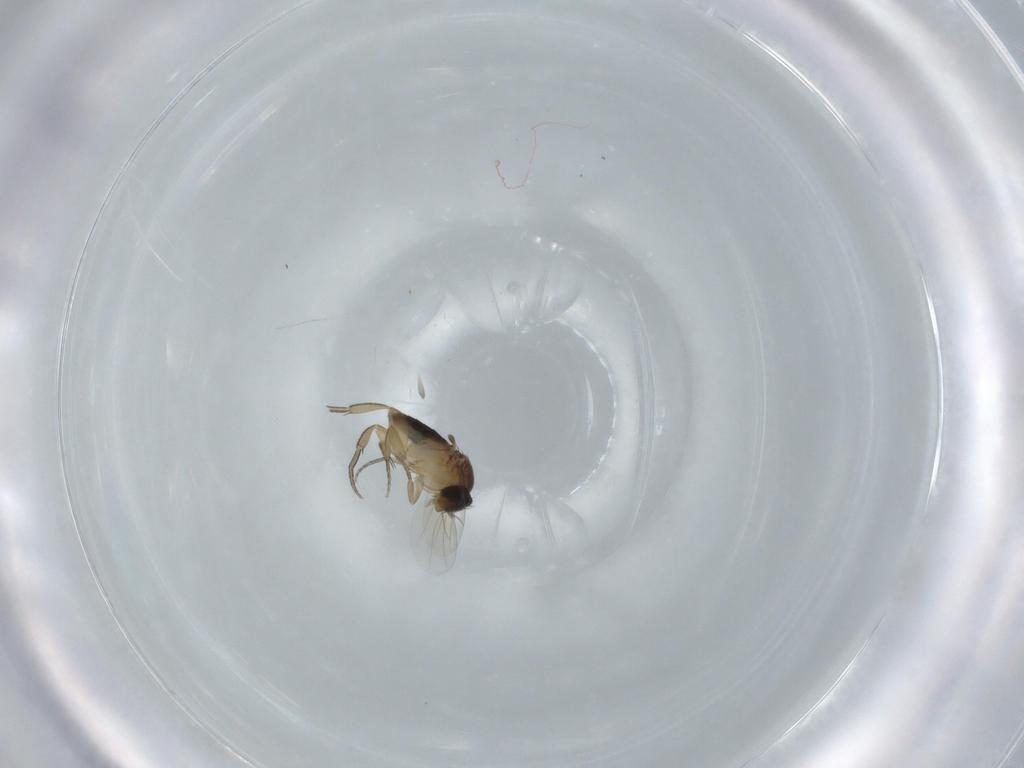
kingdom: Animalia
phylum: Arthropoda
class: Insecta
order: Diptera
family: Phoridae
